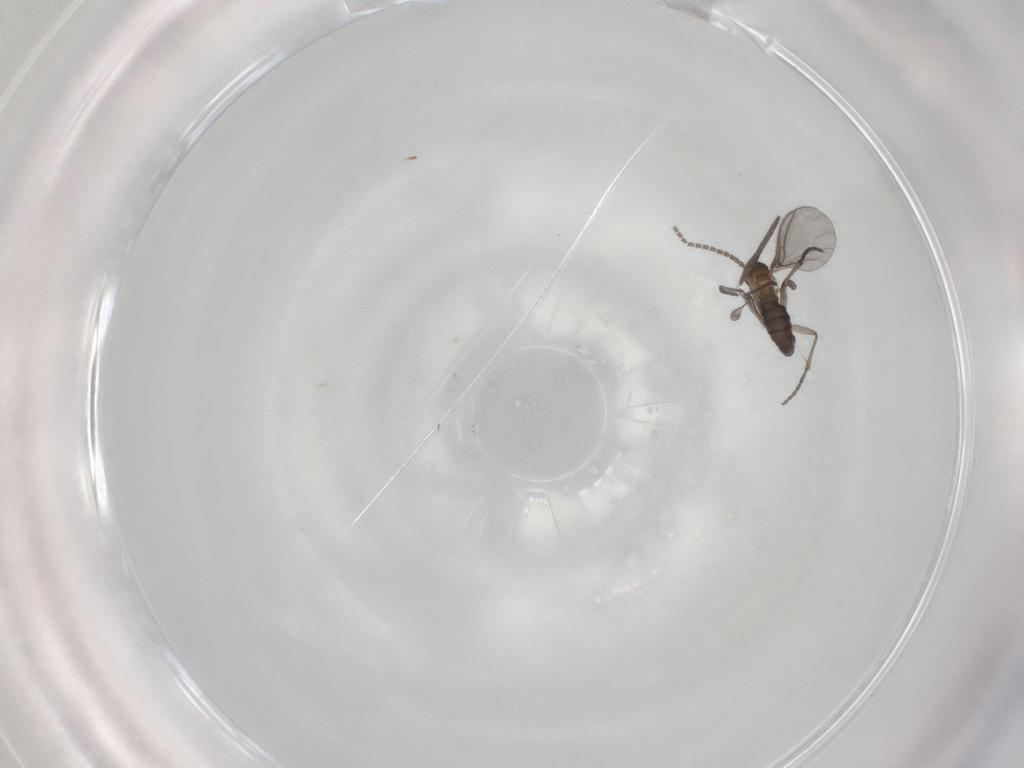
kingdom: Animalia
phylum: Arthropoda
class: Insecta
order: Diptera
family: Sciaridae
